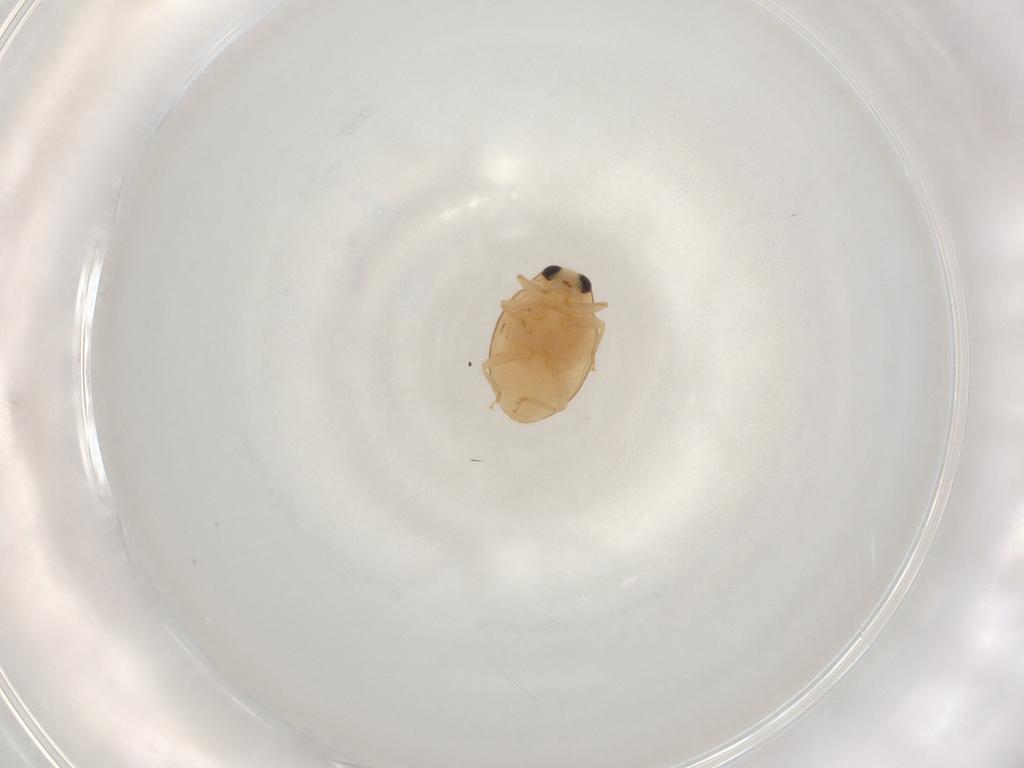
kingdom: Animalia
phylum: Arthropoda
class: Insecta
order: Coleoptera
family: Coccinellidae
